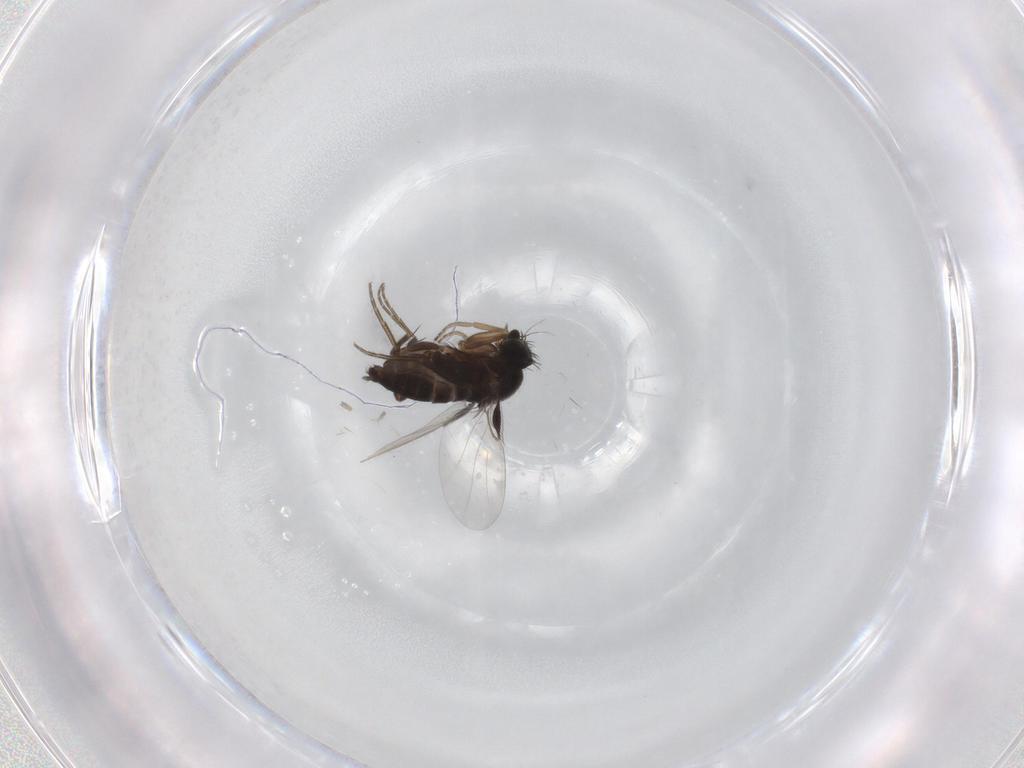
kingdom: Animalia
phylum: Arthropoda
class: Insecta
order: Diptera
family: Phoridae
